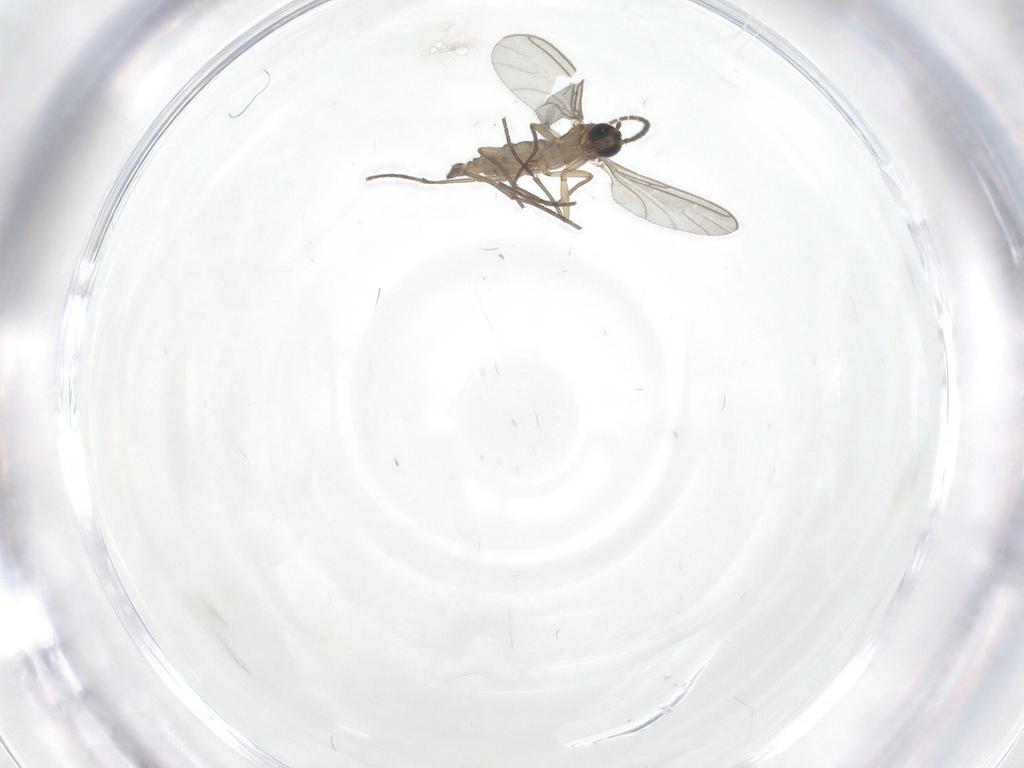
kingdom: Animalia
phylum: Arthropoda
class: Insecta
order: Diptera
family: Sciaridae
